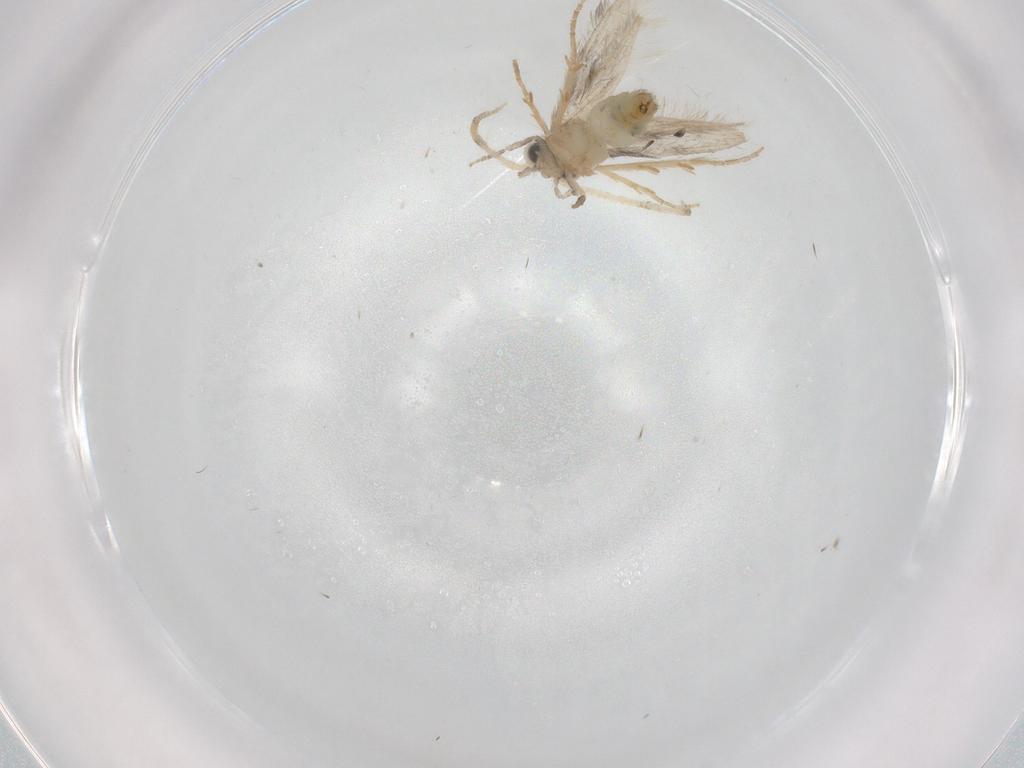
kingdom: Animalia
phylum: Arthropoda
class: Insecta
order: Trichoptera
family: Hydroptilidae
